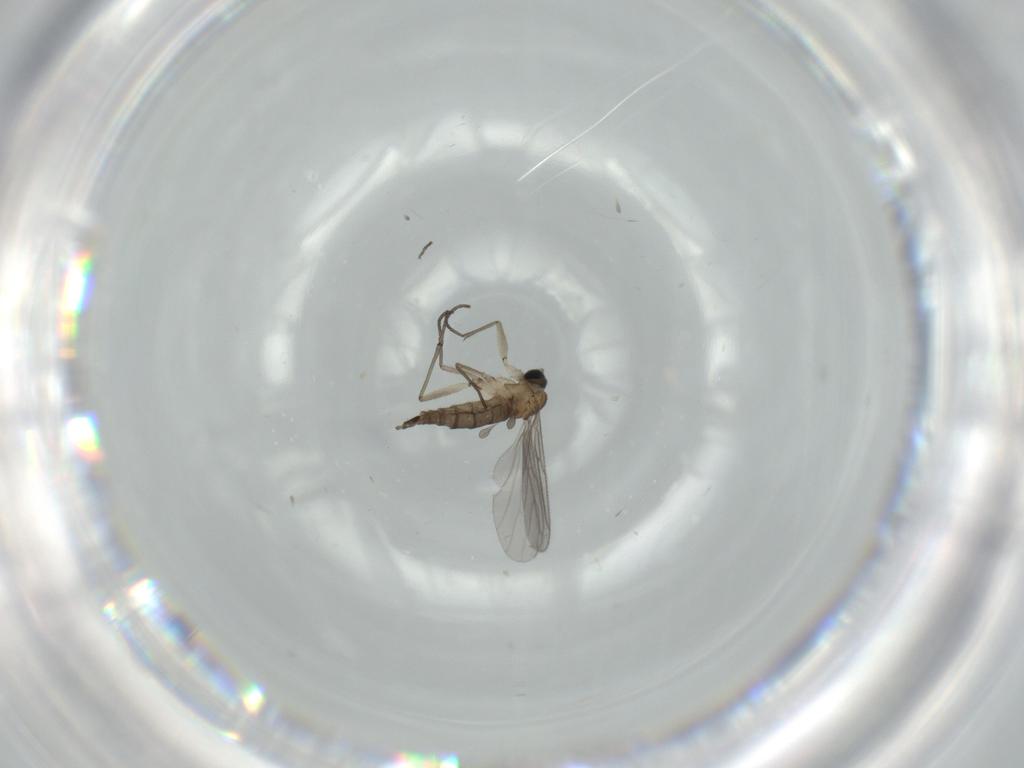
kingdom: Animalia
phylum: Arthropoda
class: Insecta
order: Diptera
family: Sciaridae
